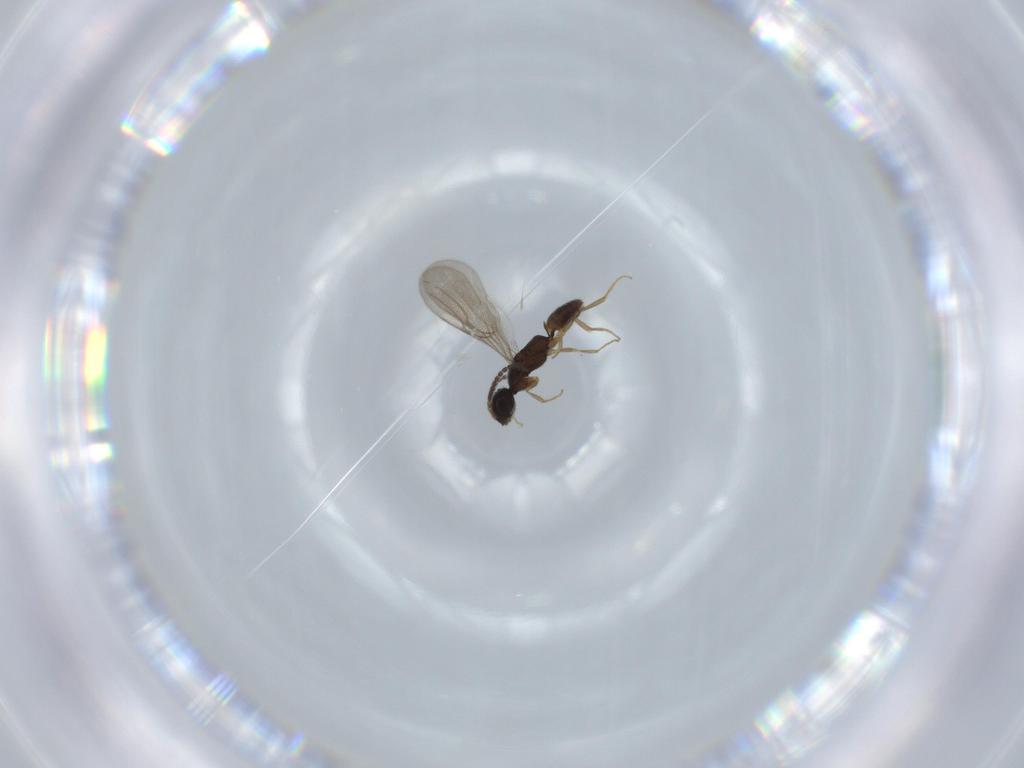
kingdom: Animalia
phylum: Arthropoda
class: Insecta
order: Hymenoptera
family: Bethylidae
